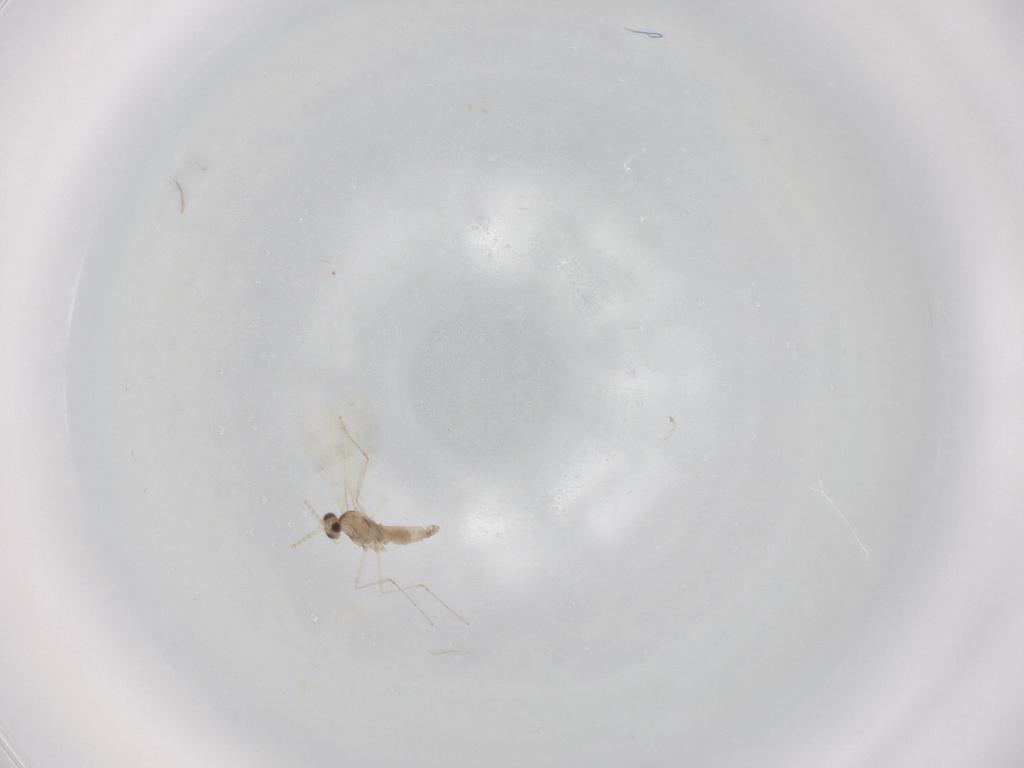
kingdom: Animalia
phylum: Arthropoda
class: Insecta
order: Diptera
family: Cecidomyiidae
